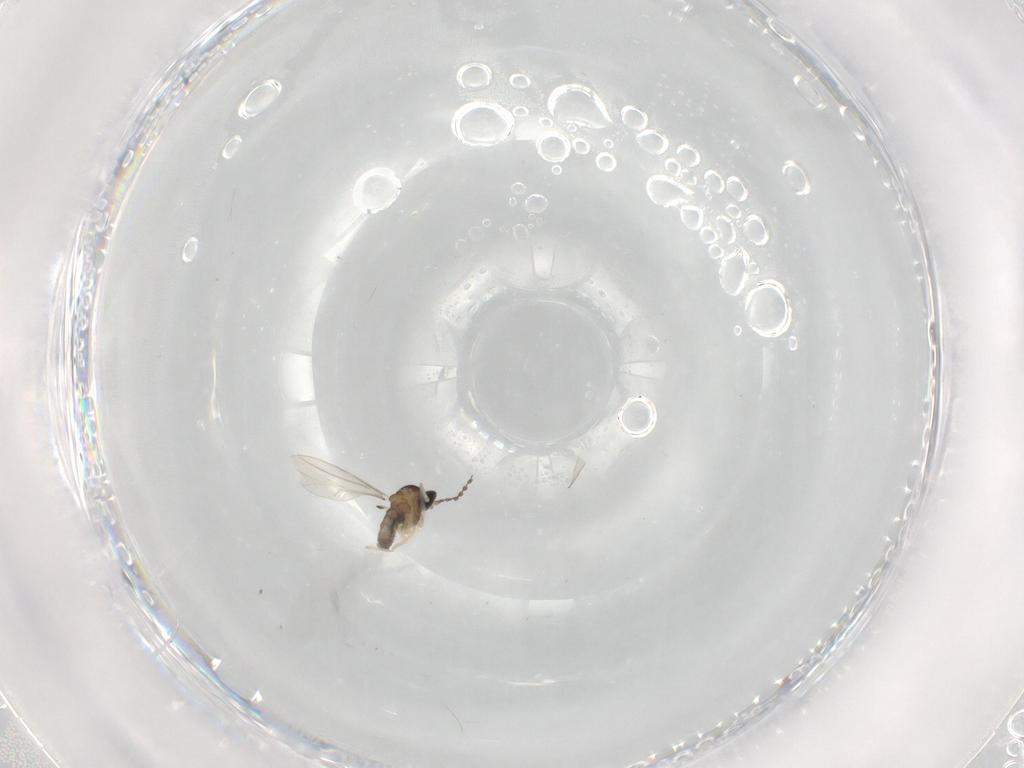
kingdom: Animalia
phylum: Arthropoda
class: Insecta
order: Diptera
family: Cecidomyiidae
